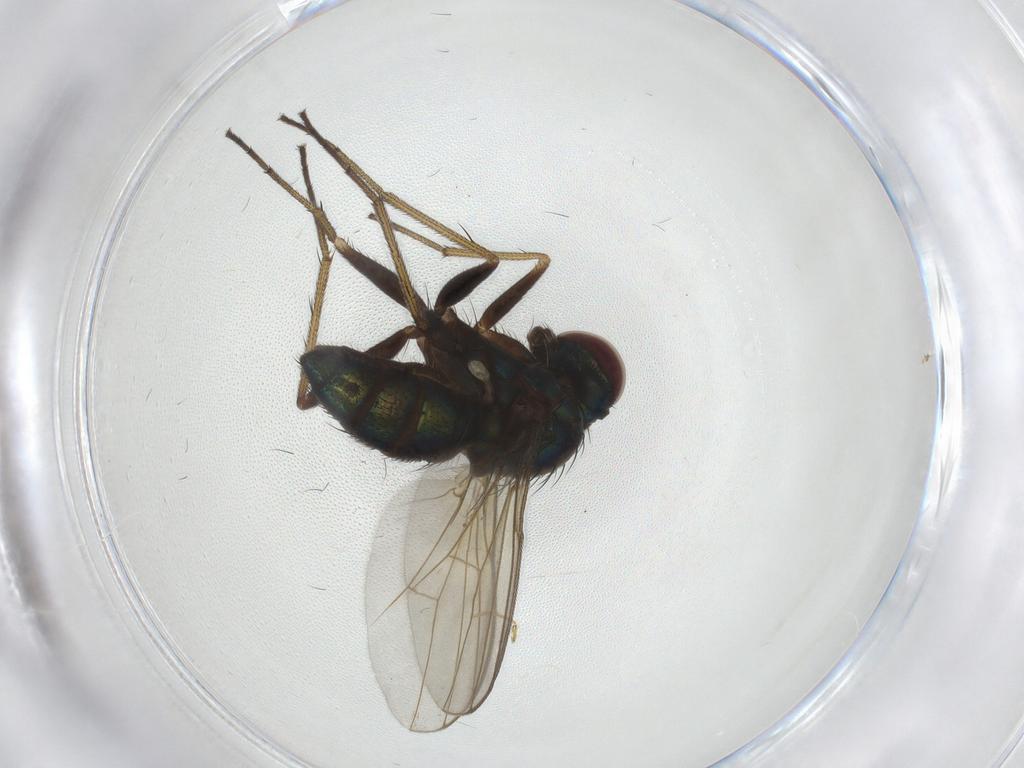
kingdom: Animalia
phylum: Arthropoda
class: Insecta
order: Diptera
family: Dolichopodidae
